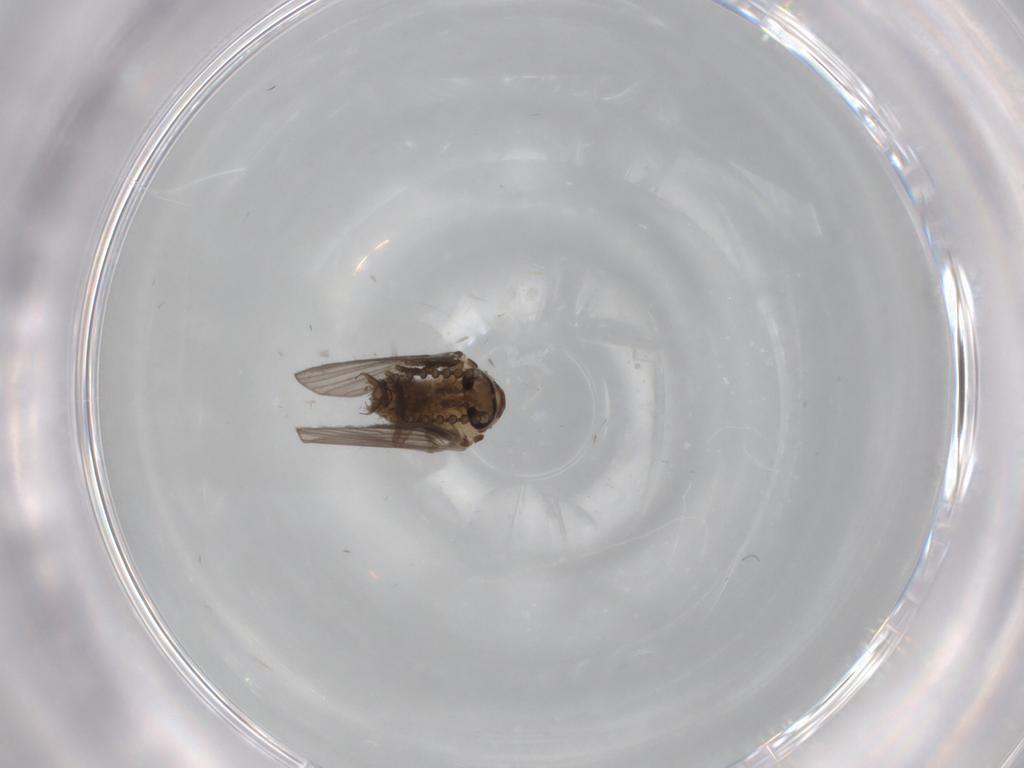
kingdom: Animalia
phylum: Arthropoda
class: Insecta
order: Diptera
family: Psychodidae
